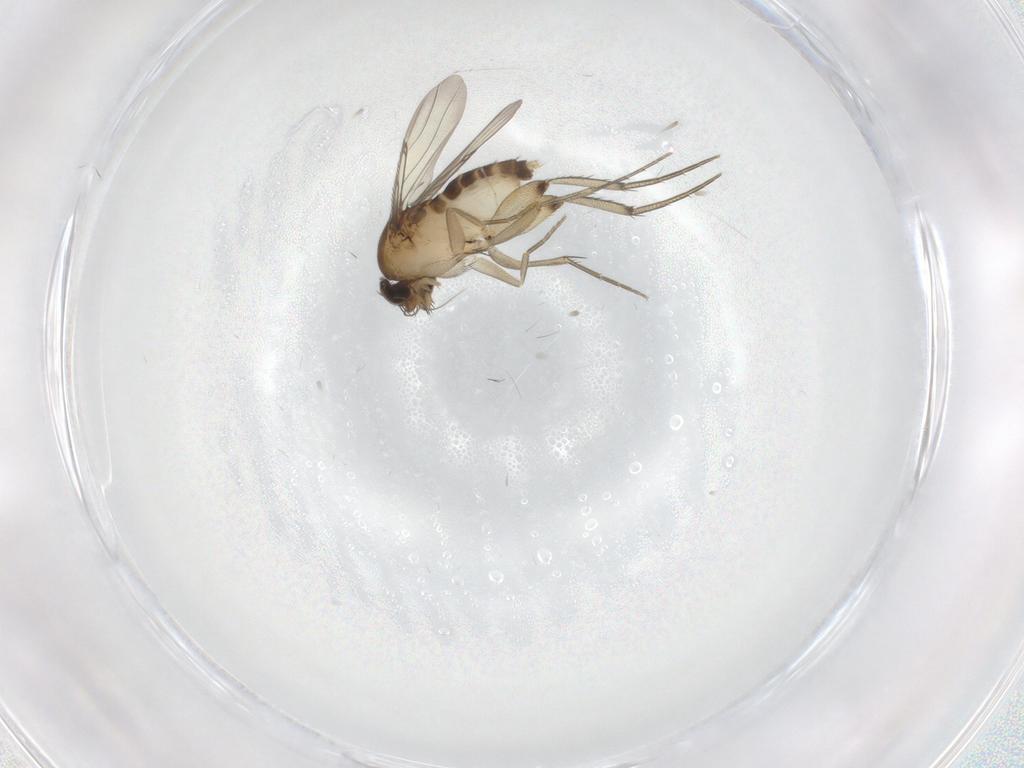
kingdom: Animalia
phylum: Arthropoda
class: Insecta
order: Diptera
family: Phoridae
